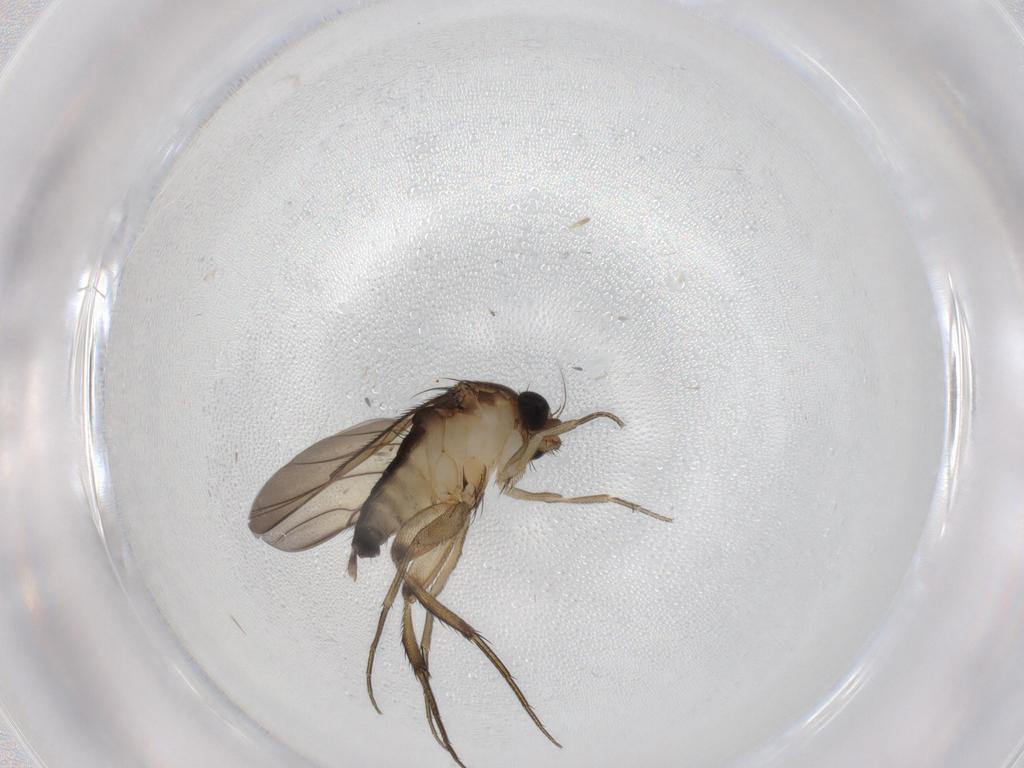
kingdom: Animalia
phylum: Arthropoda
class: Insecta
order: Diptera
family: Phoridae
